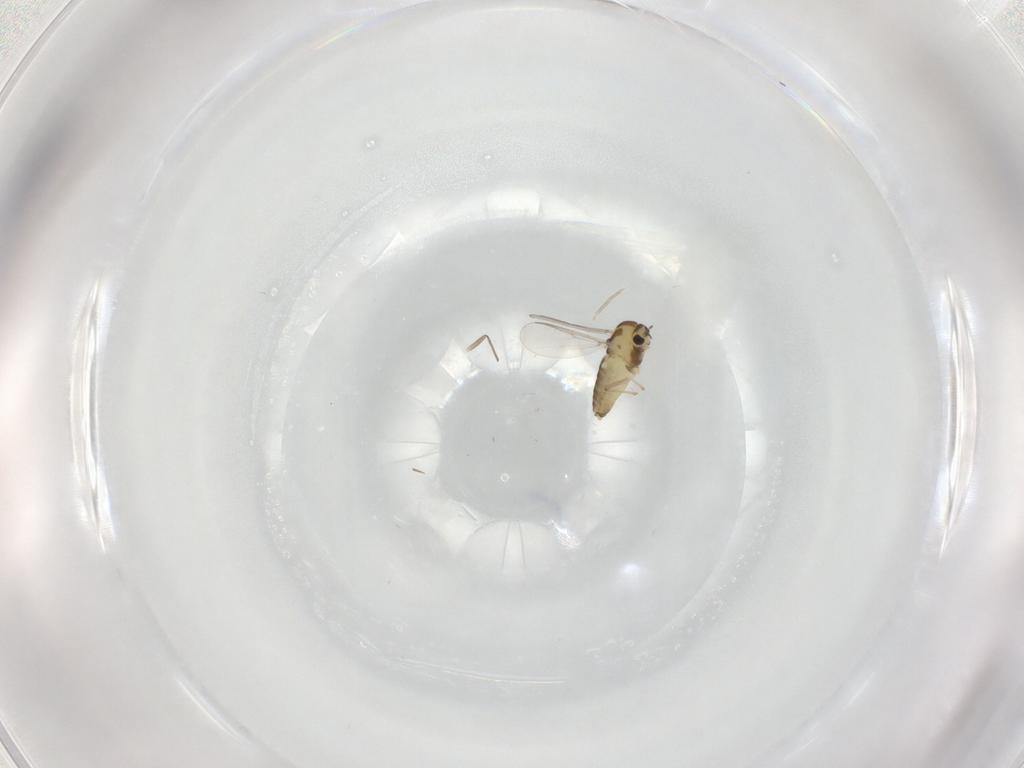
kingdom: Animalia
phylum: Arthropoda
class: Insecta
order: Diptera
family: Chironomidae
